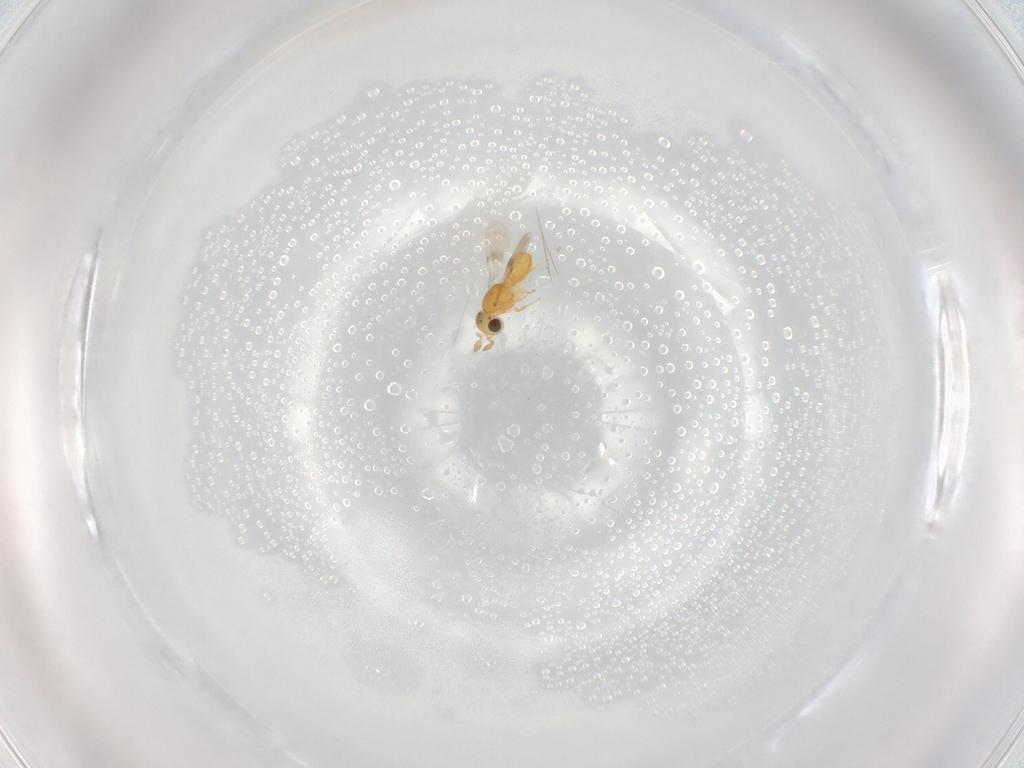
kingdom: Animalia
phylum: Arthropoda
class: Insecta
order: Hymenoptera
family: Scelionidae
